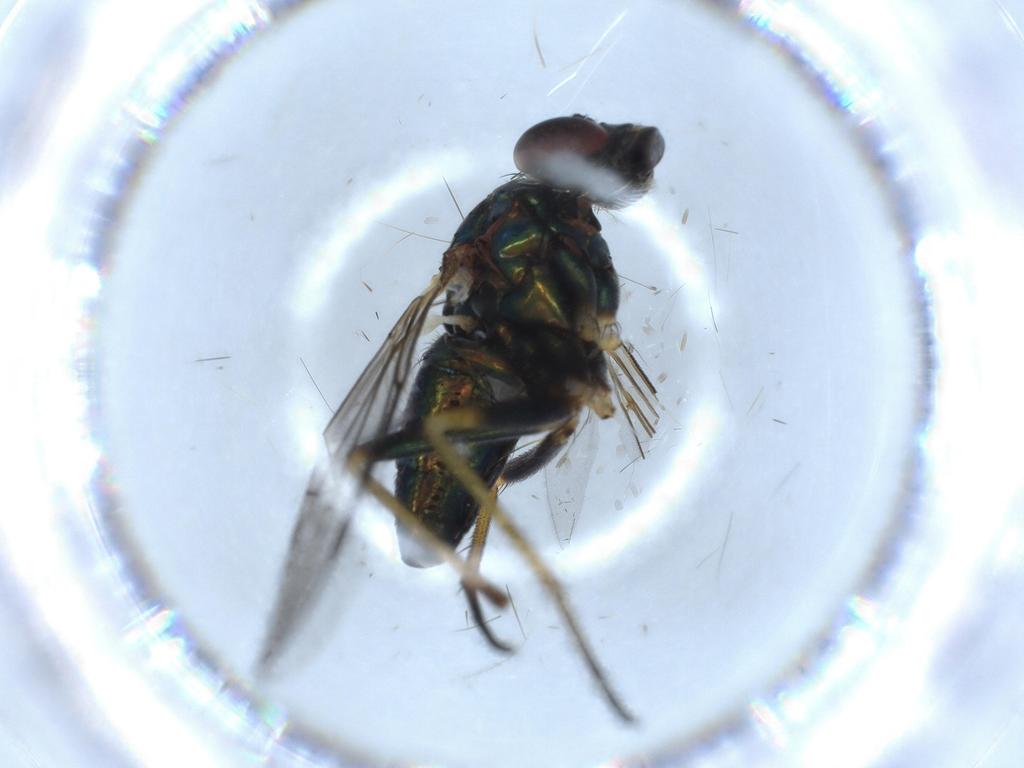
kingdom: Animalia
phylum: Arthropoda
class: Insecta
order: Diptera
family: Dolichopodidae
